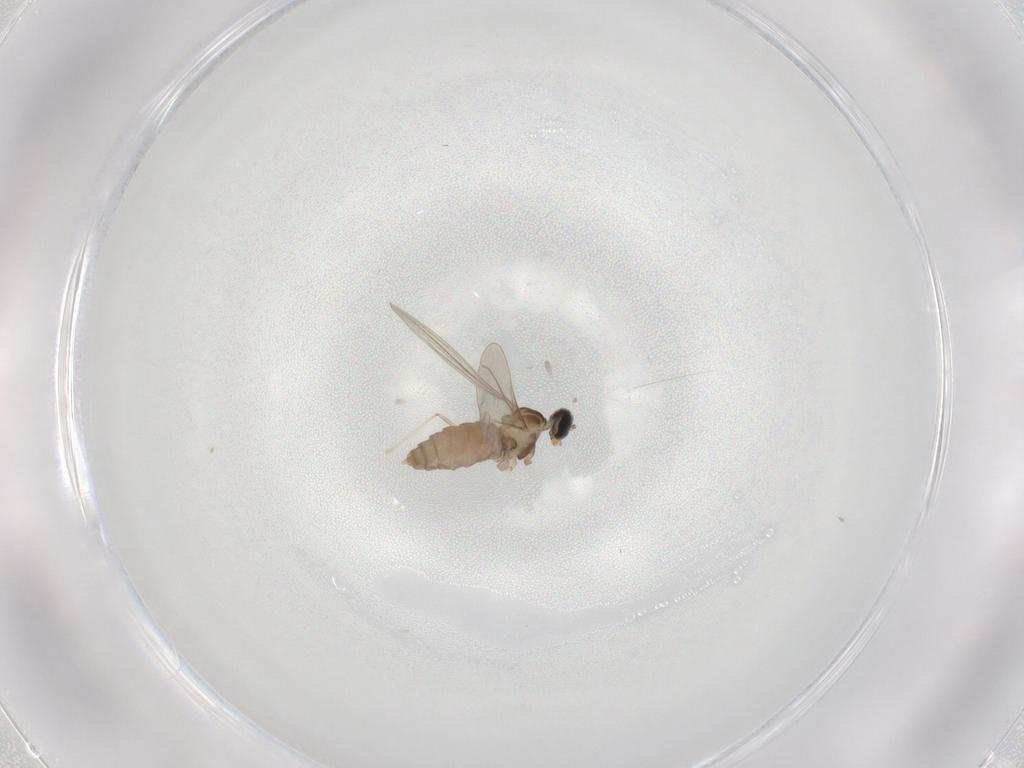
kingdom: Animalia
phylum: Arthropoda
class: Insecta
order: Diptera
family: Cecidomyiidae
